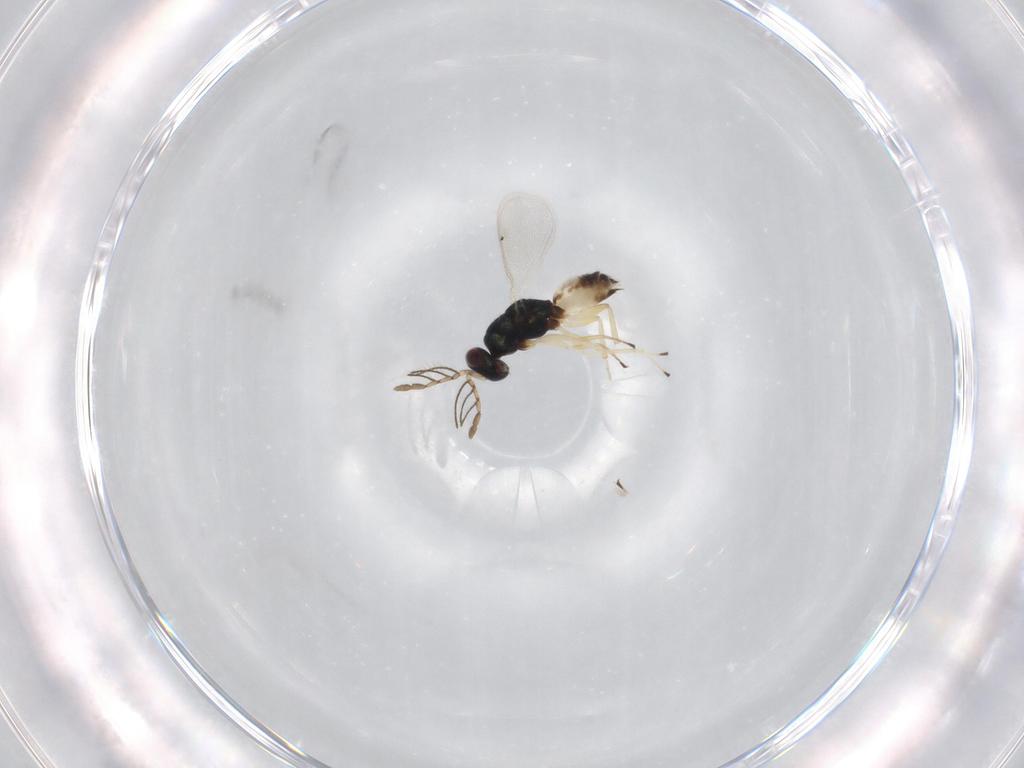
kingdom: Animalia
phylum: Arthropoda
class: Insecta
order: Hymenoptera
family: Eulophidae
